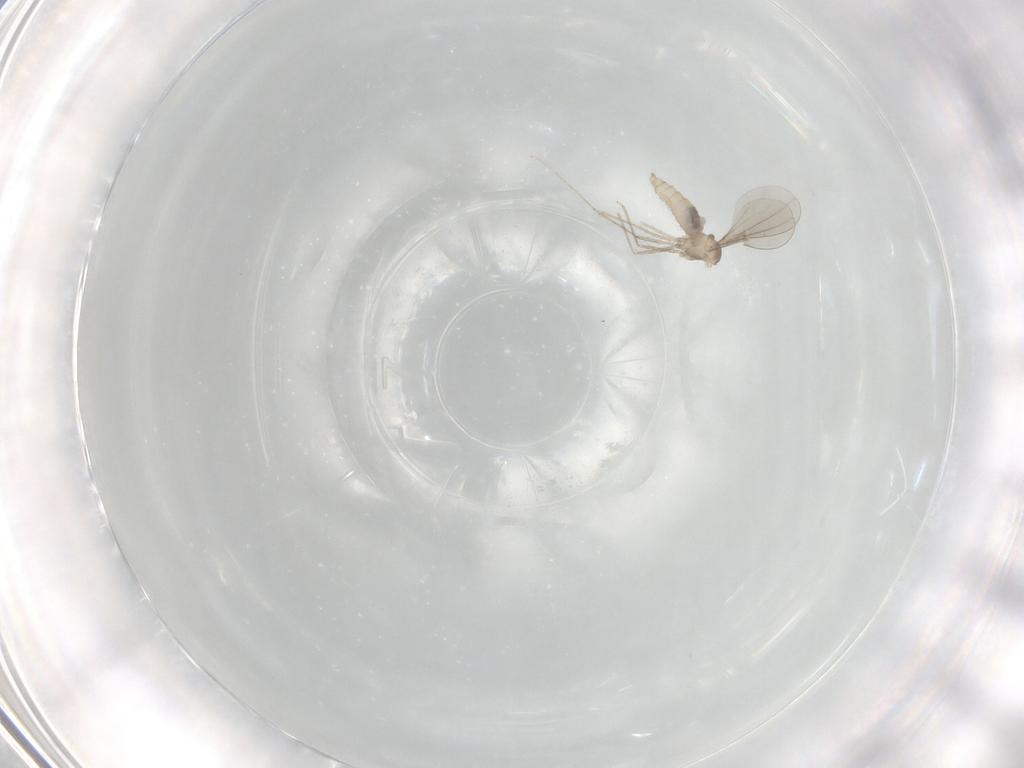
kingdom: Animalia
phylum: Arthropoda
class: Insecta
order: Diptera
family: Cecidomyiidae
